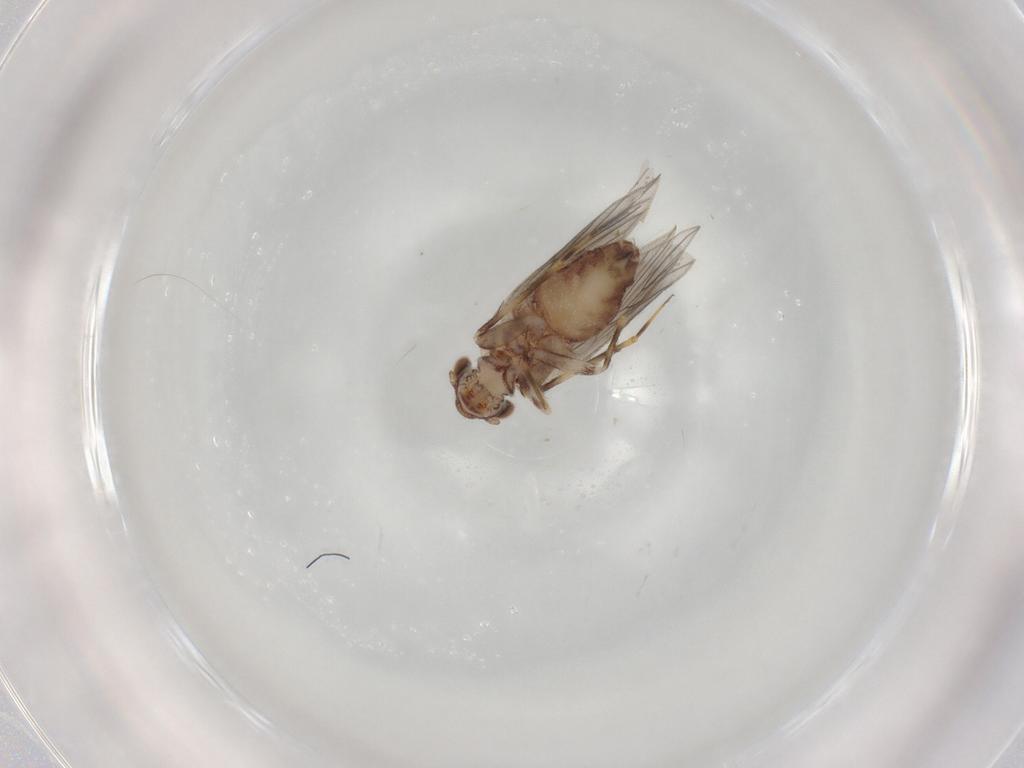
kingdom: Animalia
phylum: Arthropoda
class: Insecta
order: Psocodea
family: Lepidopsocidae
